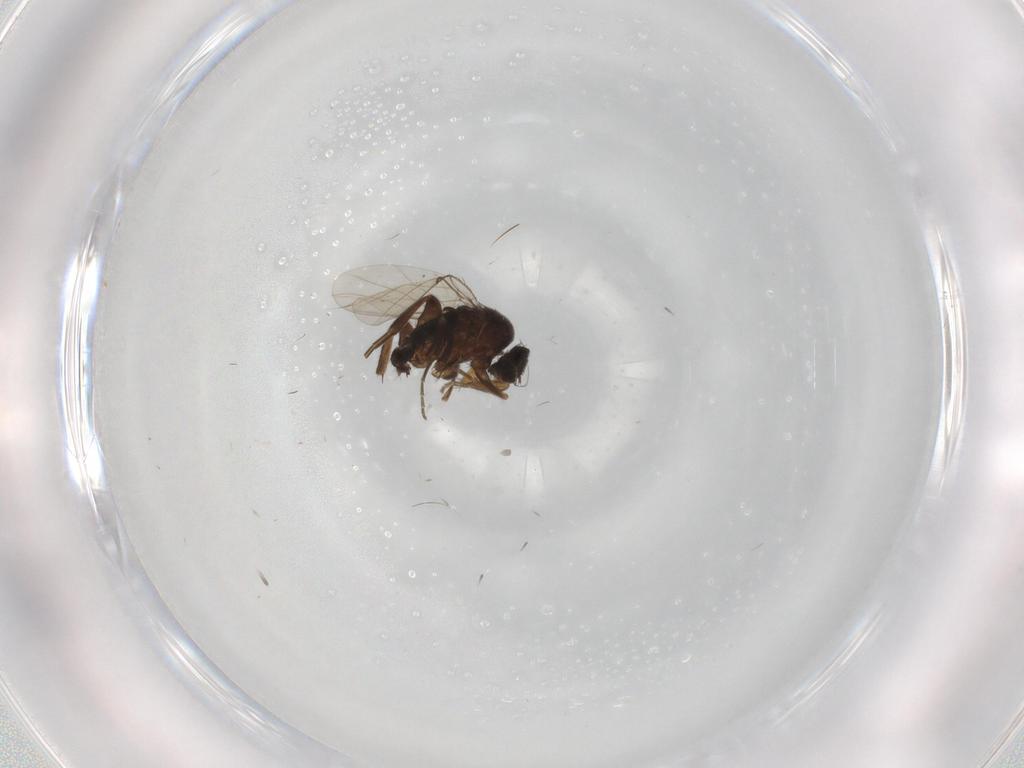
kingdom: Animalia
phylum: Arthropoda
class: Insecta
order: Diptera
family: Phoridae
